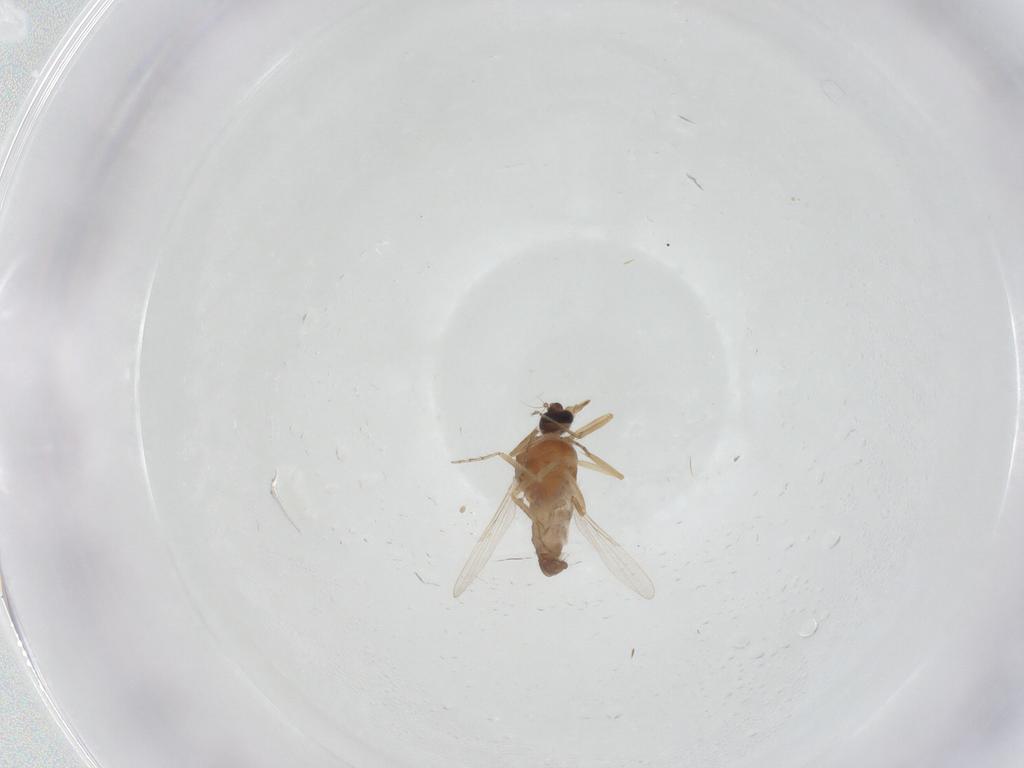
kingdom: Animalia
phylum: Arthropoda
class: Insecta
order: Diptera
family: Ceratopogonidae
